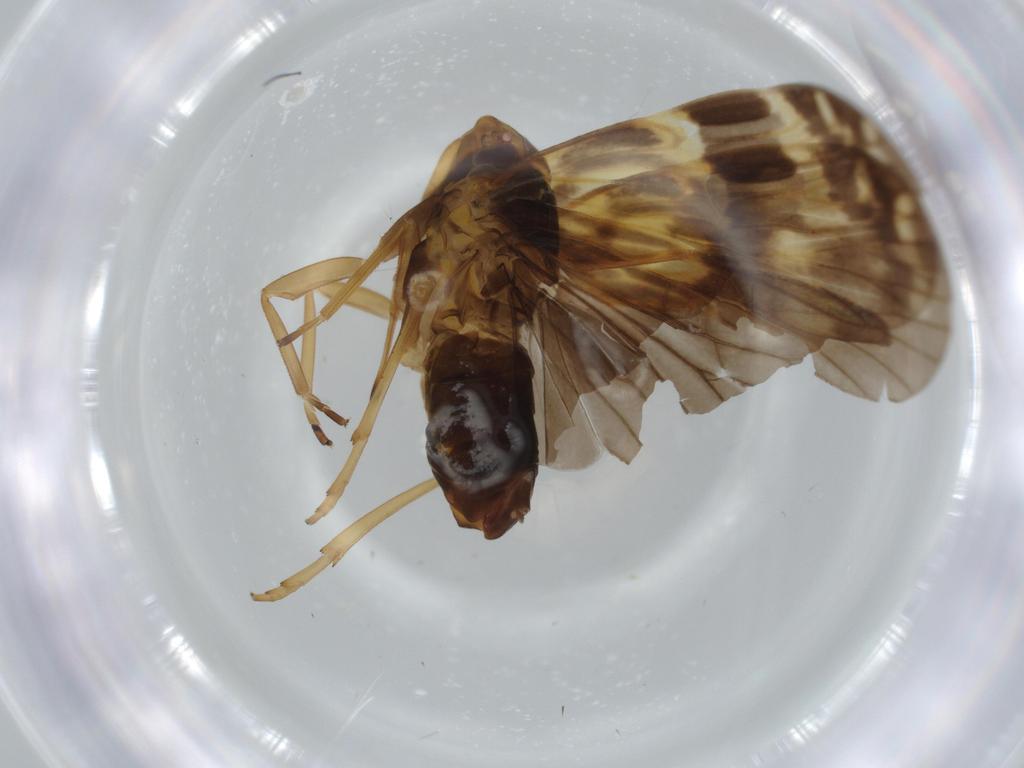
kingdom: Animalia
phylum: Arthropoda
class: Insecta
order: Hemiptera
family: Cixiidae
